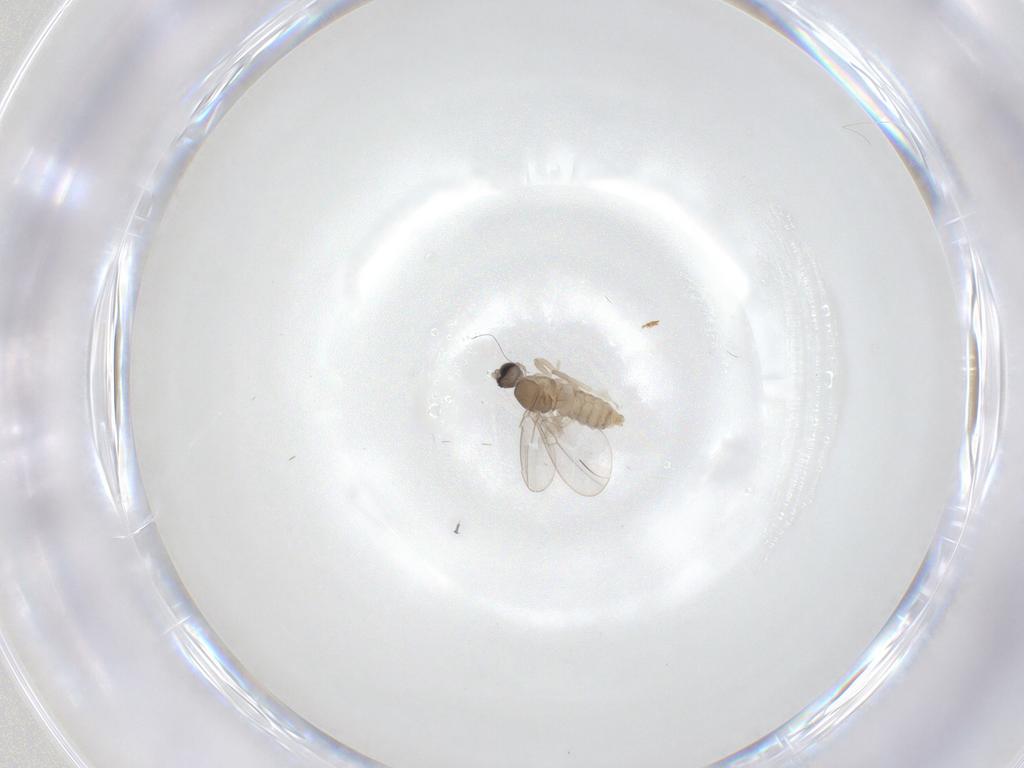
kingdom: Animalia
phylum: Arthropoda
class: Insecta
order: Diptera
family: Cecidomyiidae
